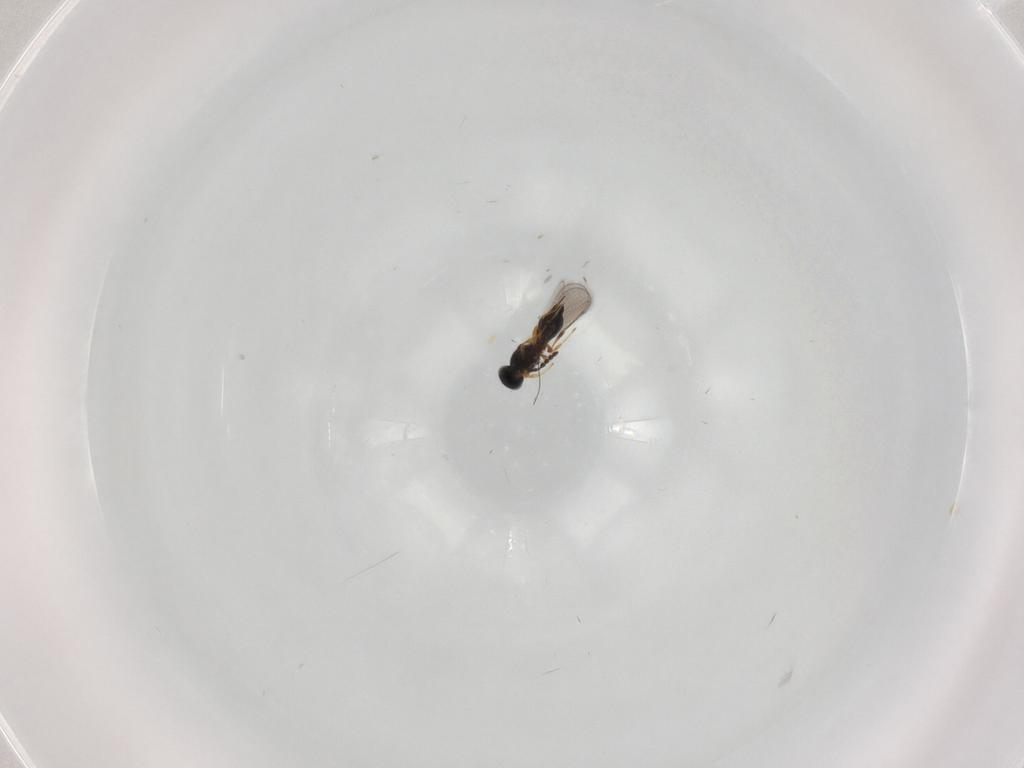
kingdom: Animalia
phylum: Arthropoda
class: Insecta
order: Hymenoptera
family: Platygastridae
